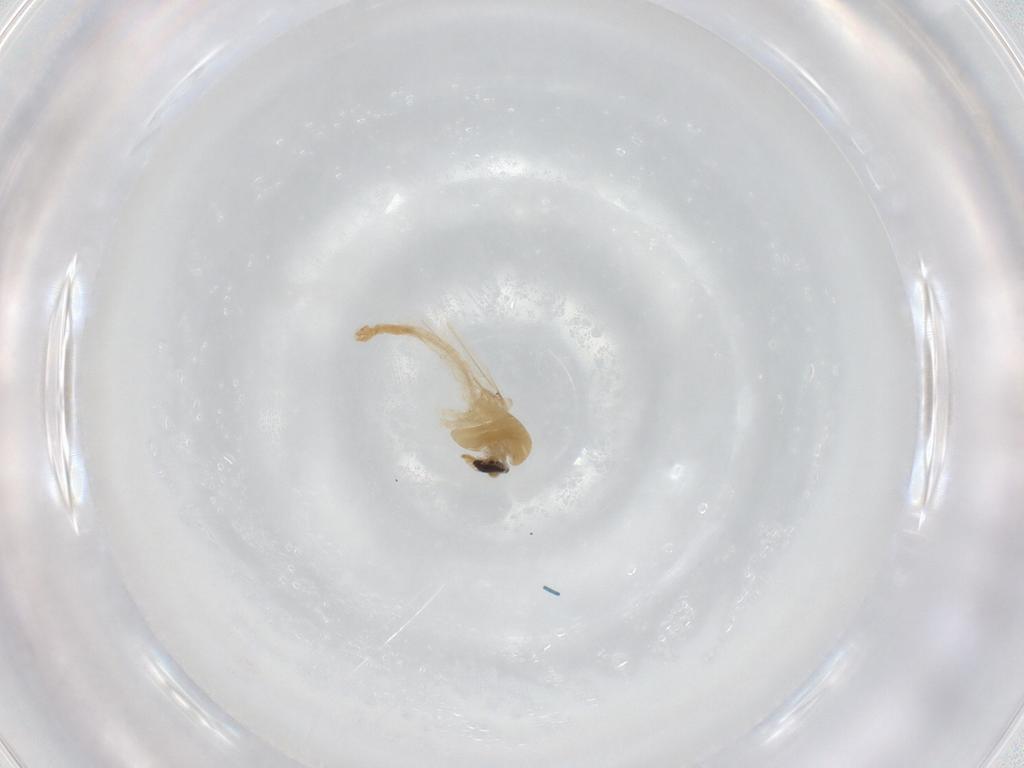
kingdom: Animalia
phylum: Arthropoda
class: Insecta
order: Diptera
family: Chironomidae
